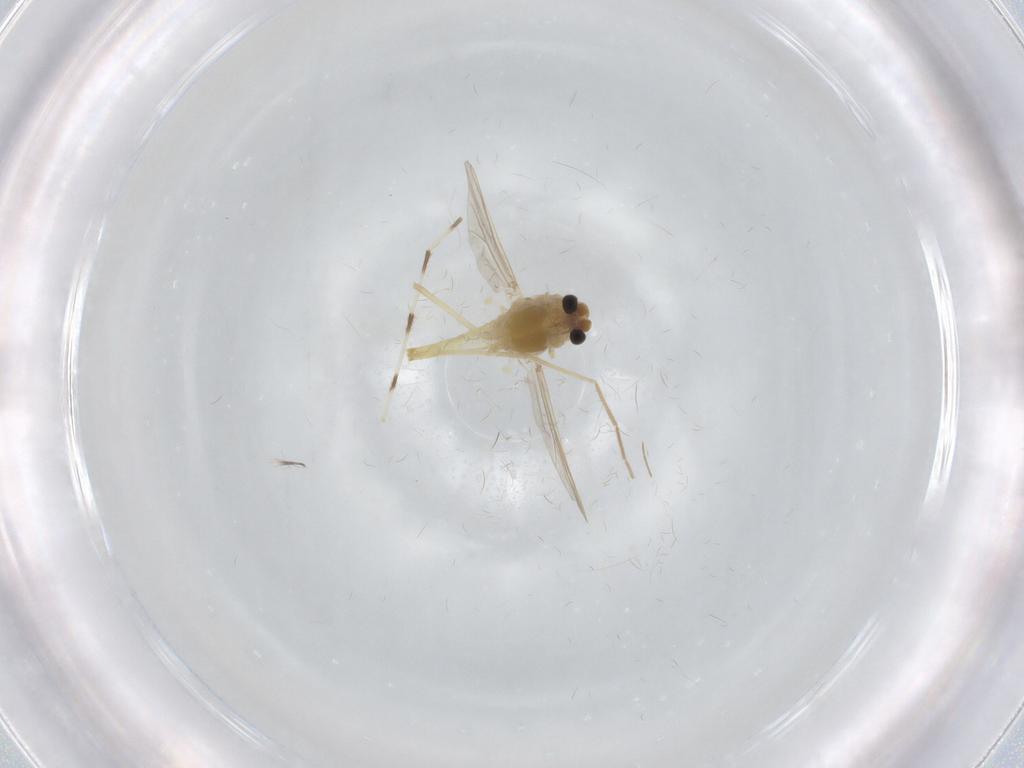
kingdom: Animalia
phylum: Arthropoda
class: Insecta
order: Diptera
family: Chironomidae
